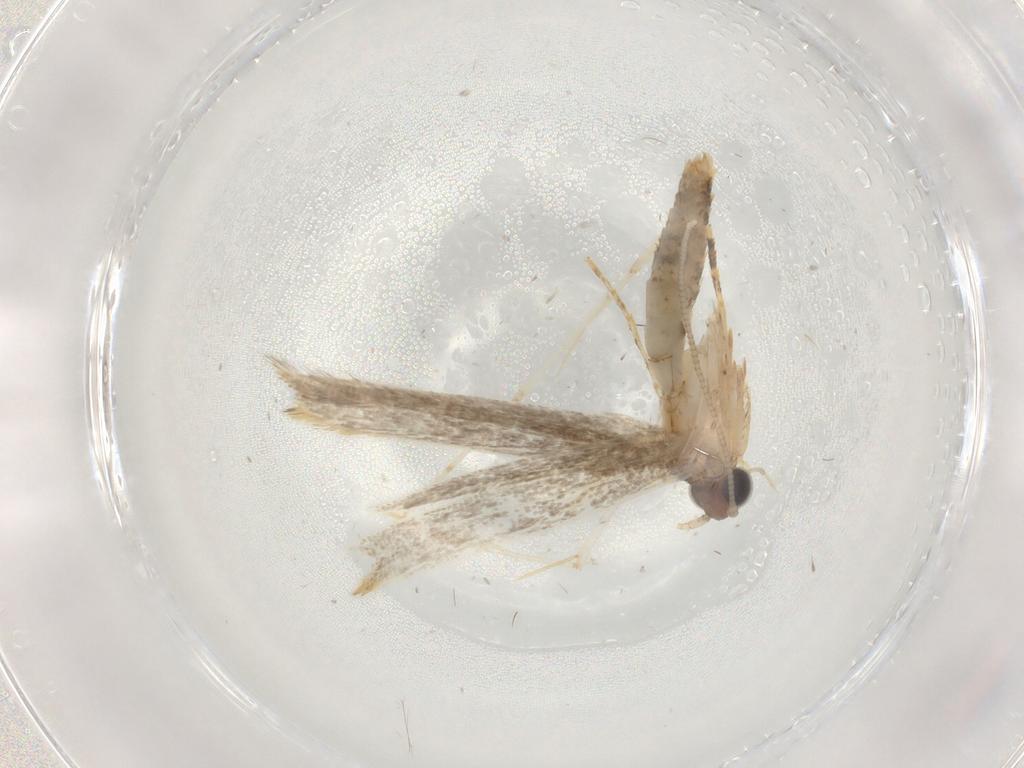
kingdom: Animalia
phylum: Arthropoda
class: Insecta
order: Lepidoptera
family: Tineidae
